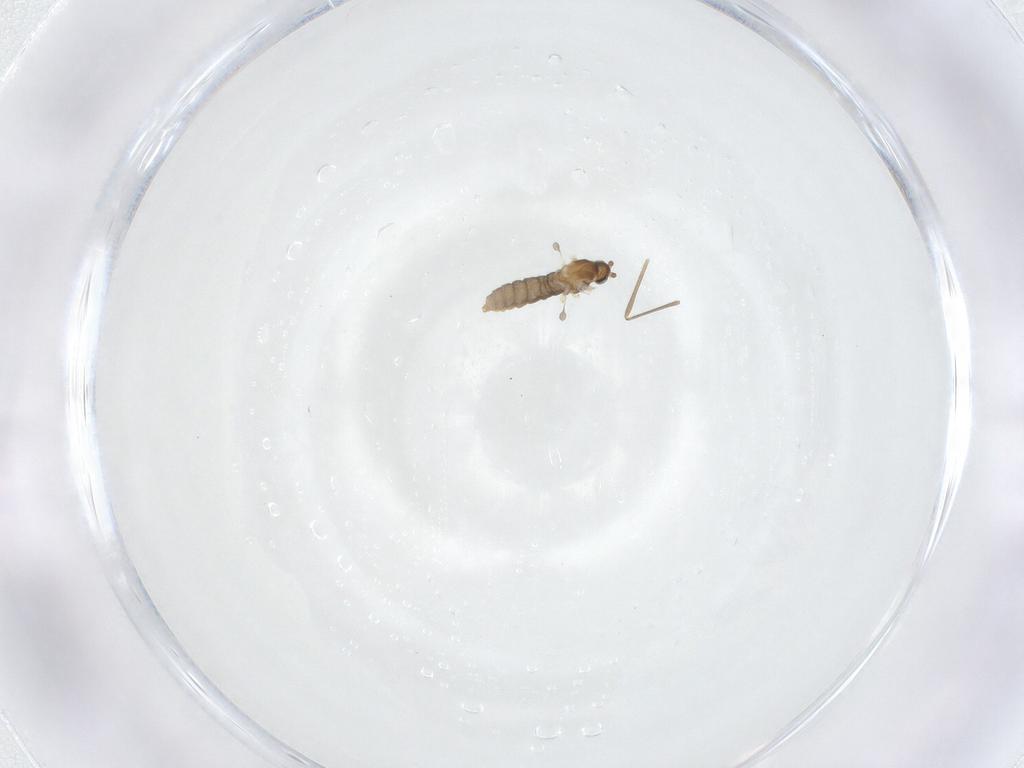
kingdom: Animalia
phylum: Arthropoda
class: Insecta
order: Diptera
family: Cecidomyiidae
